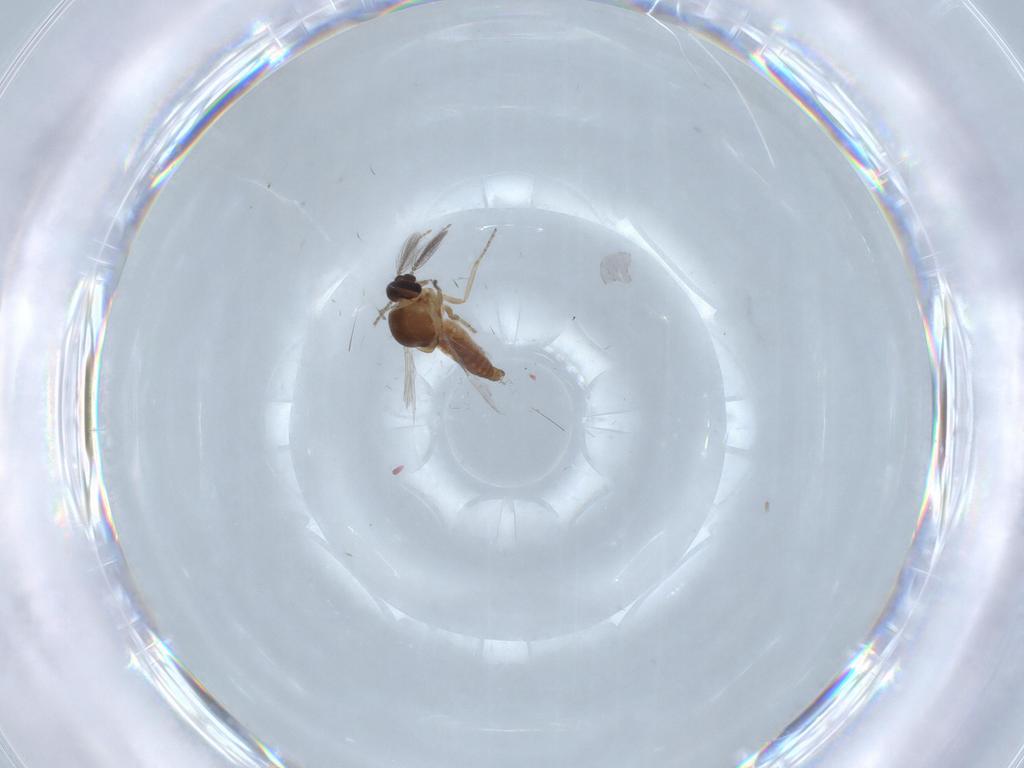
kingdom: Animalia
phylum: Arthropoda
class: Insecta
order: Diptera
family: Ceratopogonidae
